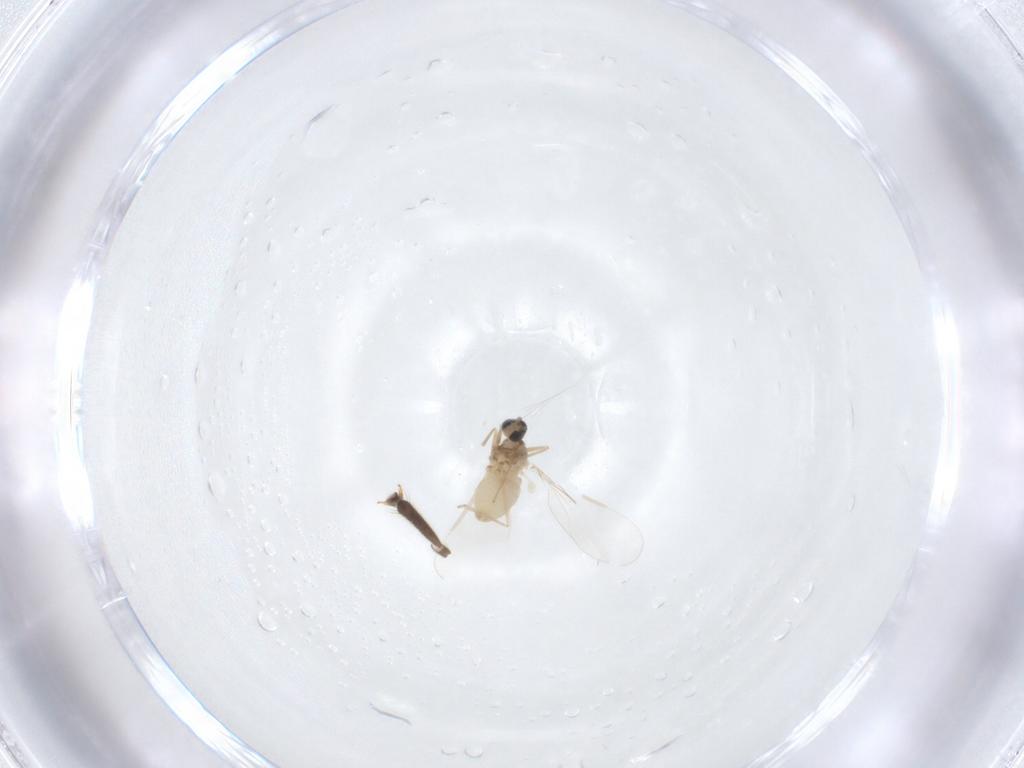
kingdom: Animalia
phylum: Arthropoda
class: Insecta
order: Diptera
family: Cecidomyiidae
